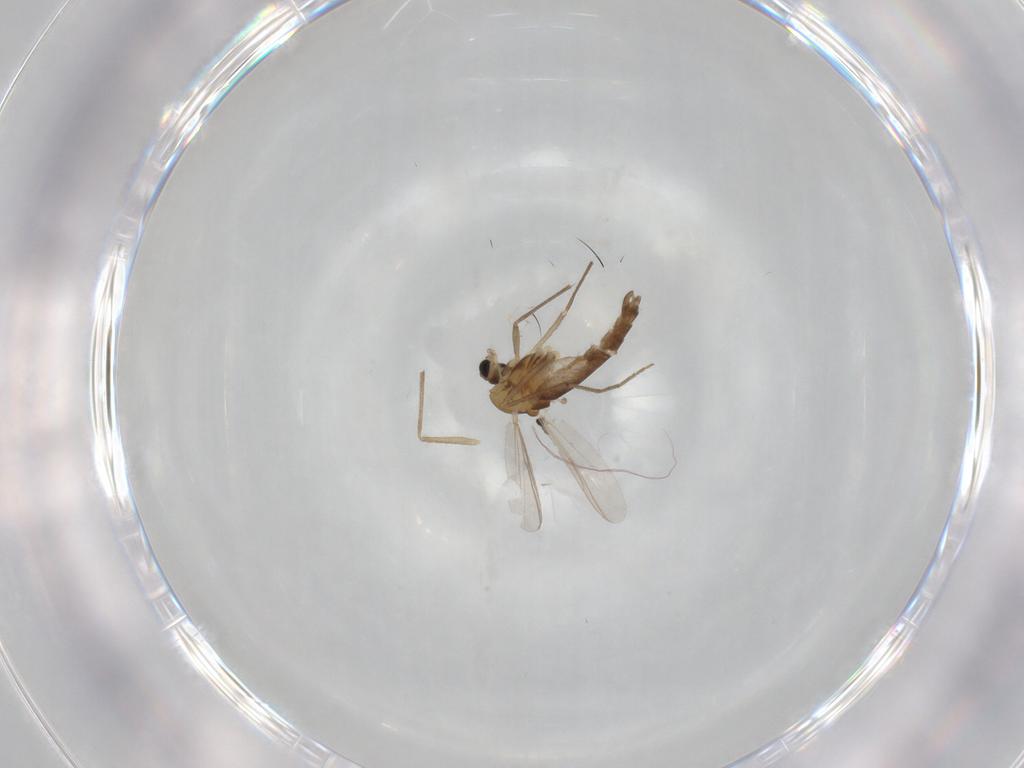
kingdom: Animalia
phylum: Arthropoda
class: Insecta
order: Diptera
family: Chironomidae
